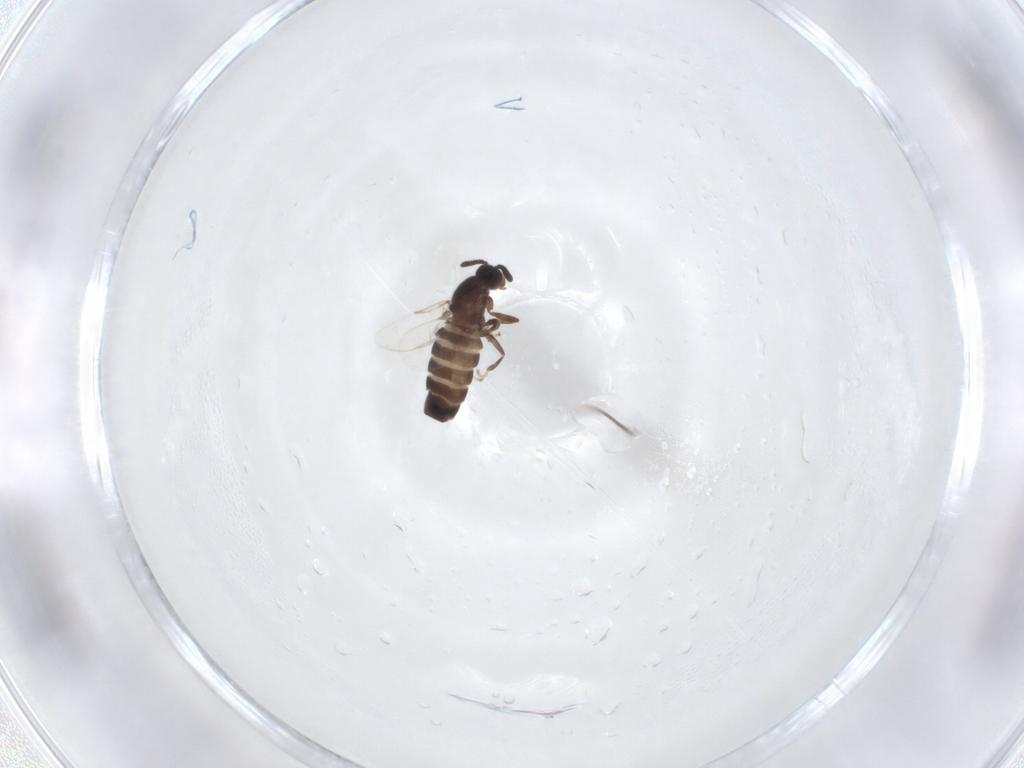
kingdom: Animalia
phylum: Arthropoda
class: Insecta
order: Diptera
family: Scatopsidae
